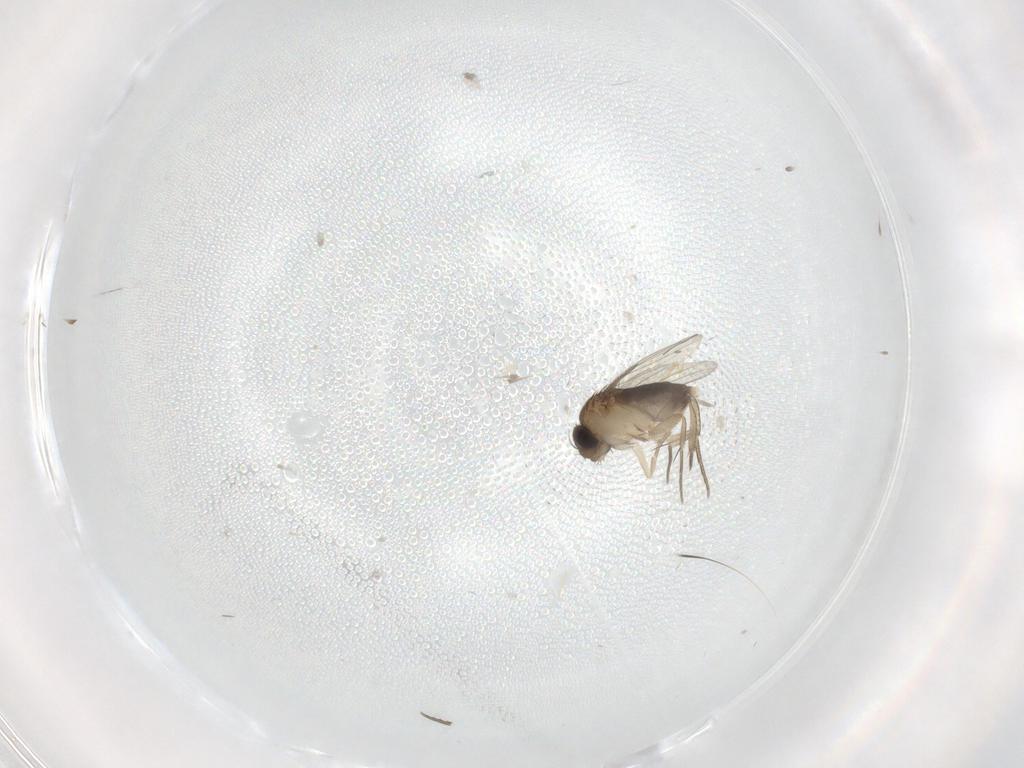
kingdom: Animalia
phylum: Arthropoda
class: Insecta
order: Diptera
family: Phoridae
